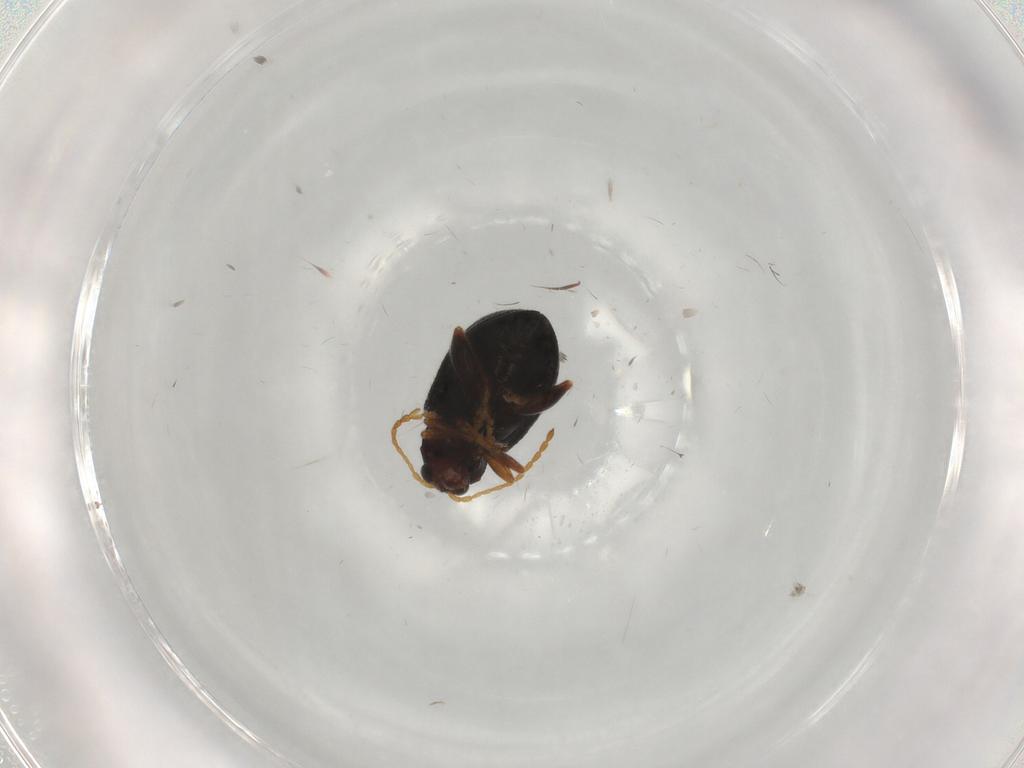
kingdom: Animalia
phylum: Arthropoda
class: Insecta
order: Coleoptera
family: Chrysomelidae
